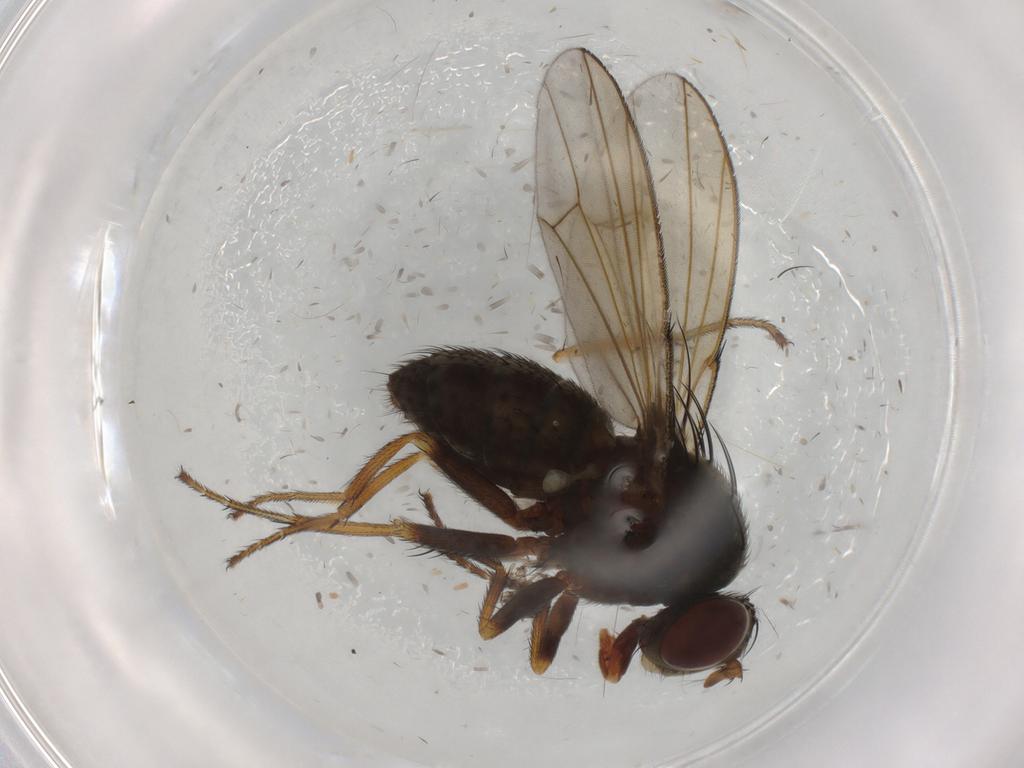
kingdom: Animalia
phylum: Arthropoda
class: Insecta
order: Diptera
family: Chironomidae
